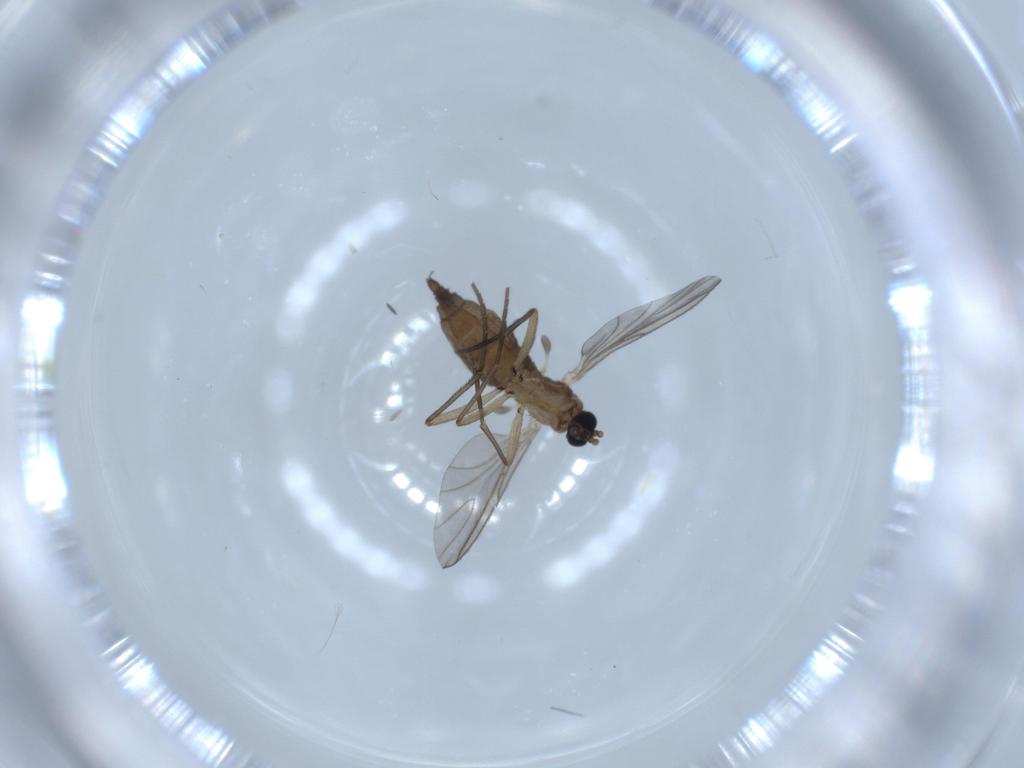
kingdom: Animalia
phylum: Arthropoda
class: Insecta
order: Diptera
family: Sciaridae
